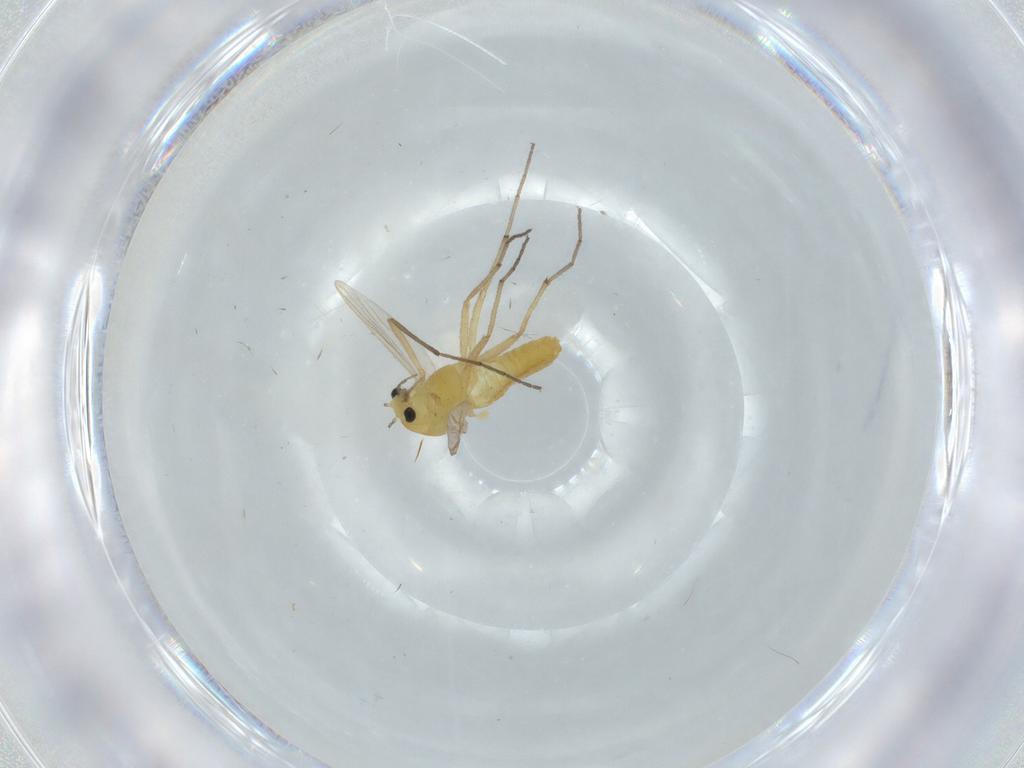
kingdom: Animalia
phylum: Arthropoda
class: Insecta
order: Diptera
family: Chironomidae
